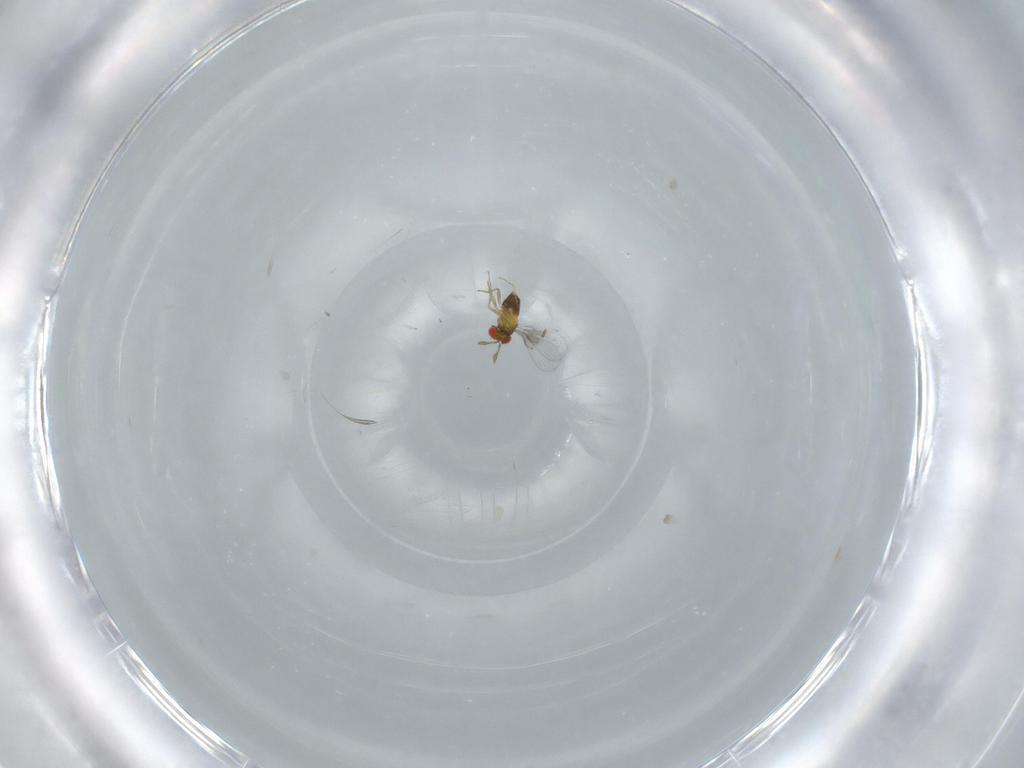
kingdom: Animalia
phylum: Arthropoda
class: Insecta
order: Hymenoptera
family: Trichogrammatidae
